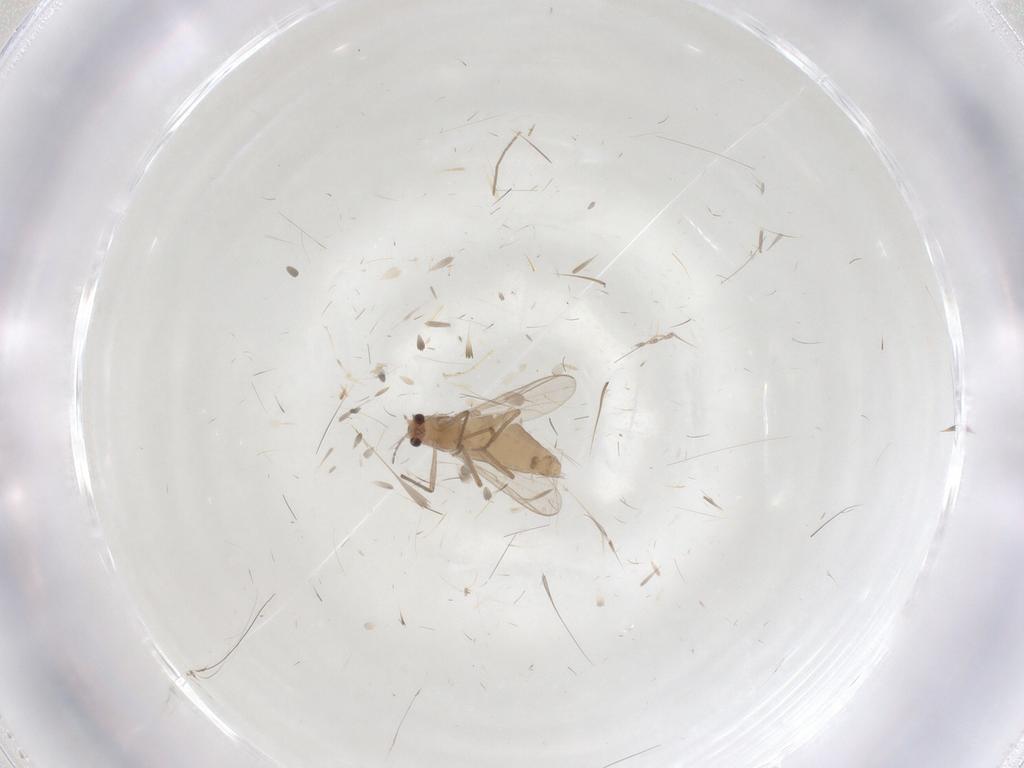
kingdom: Animalia
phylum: Arthropoda
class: Insecta
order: Diptera
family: Chironomidae
